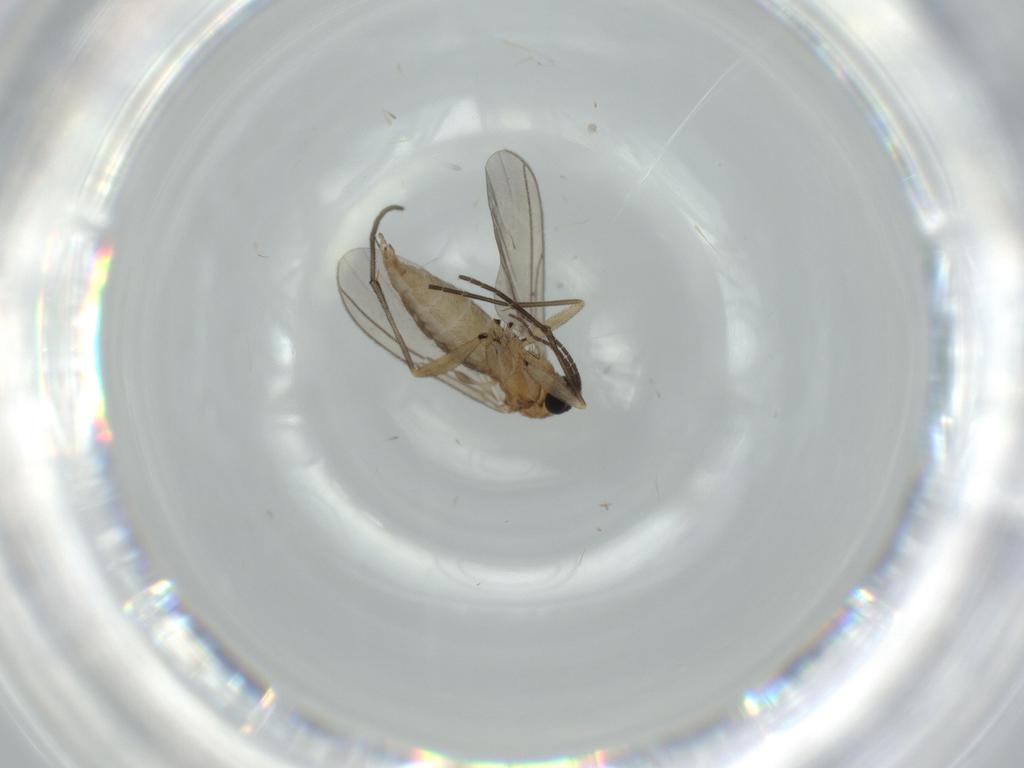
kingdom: Animalia
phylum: Arthropoda
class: Insecta
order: Diptera
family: Sciaridae
